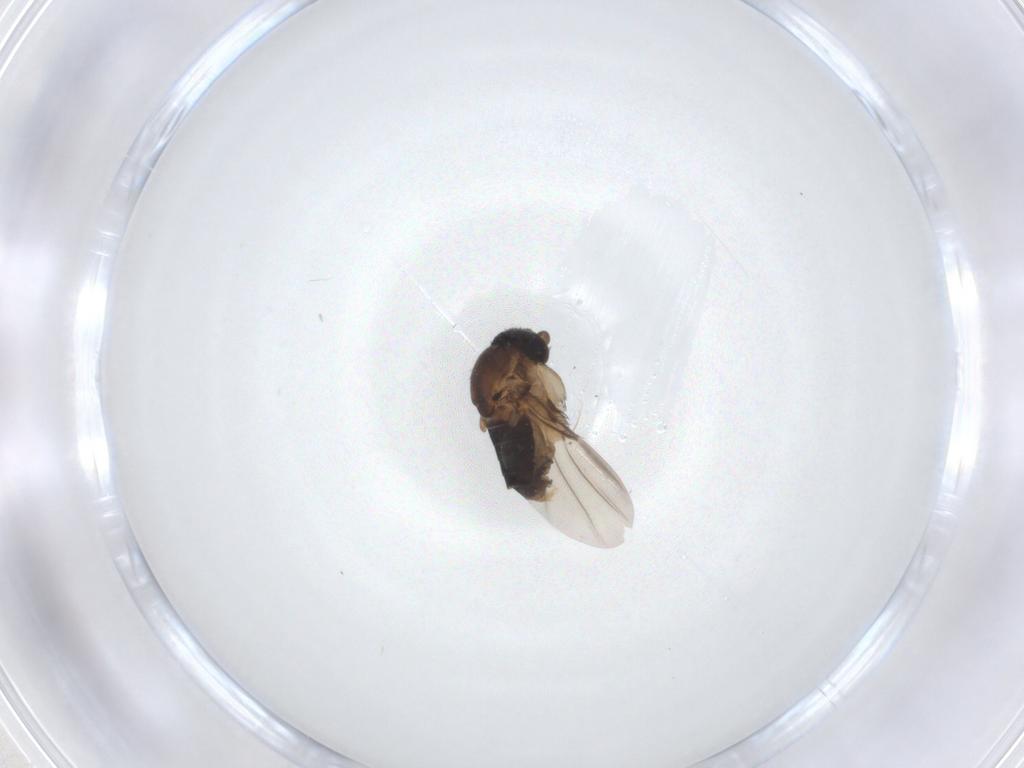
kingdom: Animalia
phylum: Arthropoda
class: Insecta
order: Diptera
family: Phoridae
